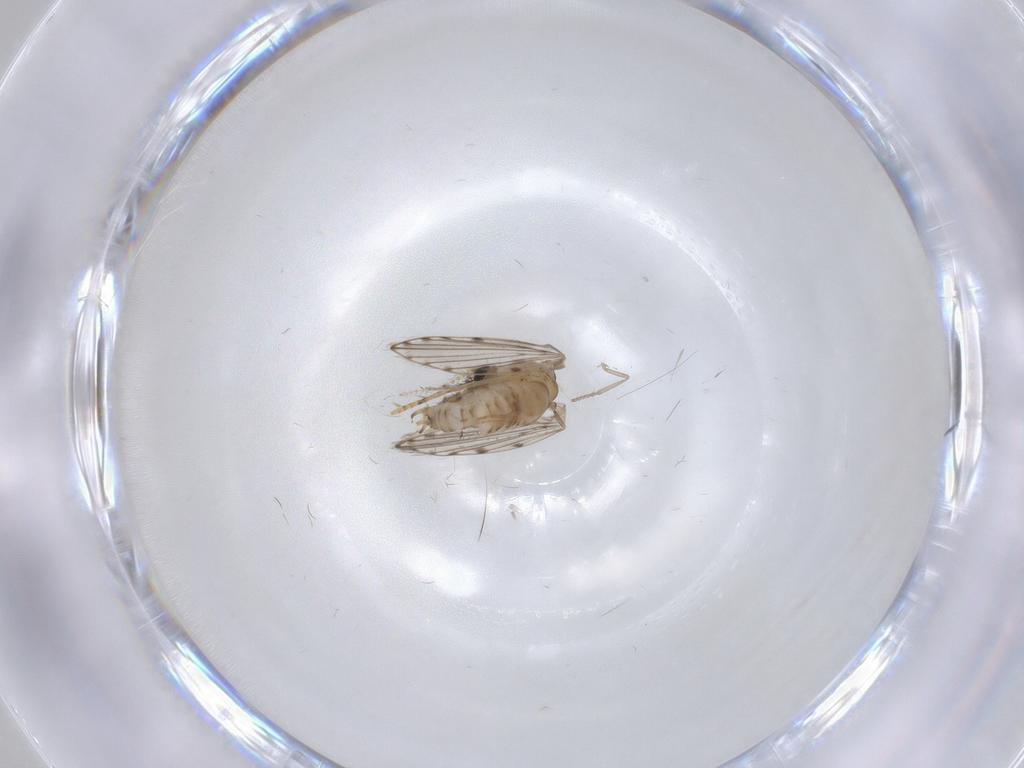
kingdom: Animalia
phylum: Arthropoda
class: Insecta
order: Diptera
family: Psychodidae
